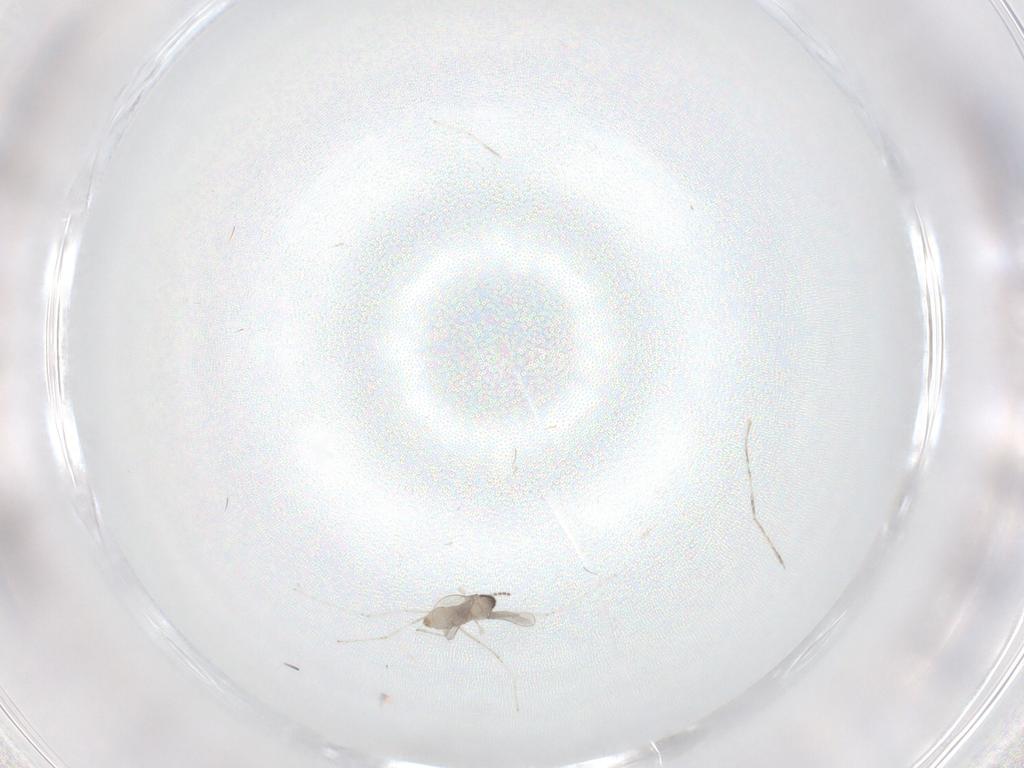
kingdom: Animalia
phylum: Arthropoda
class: Insecta
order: Diptera
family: Cecidomyiidae
